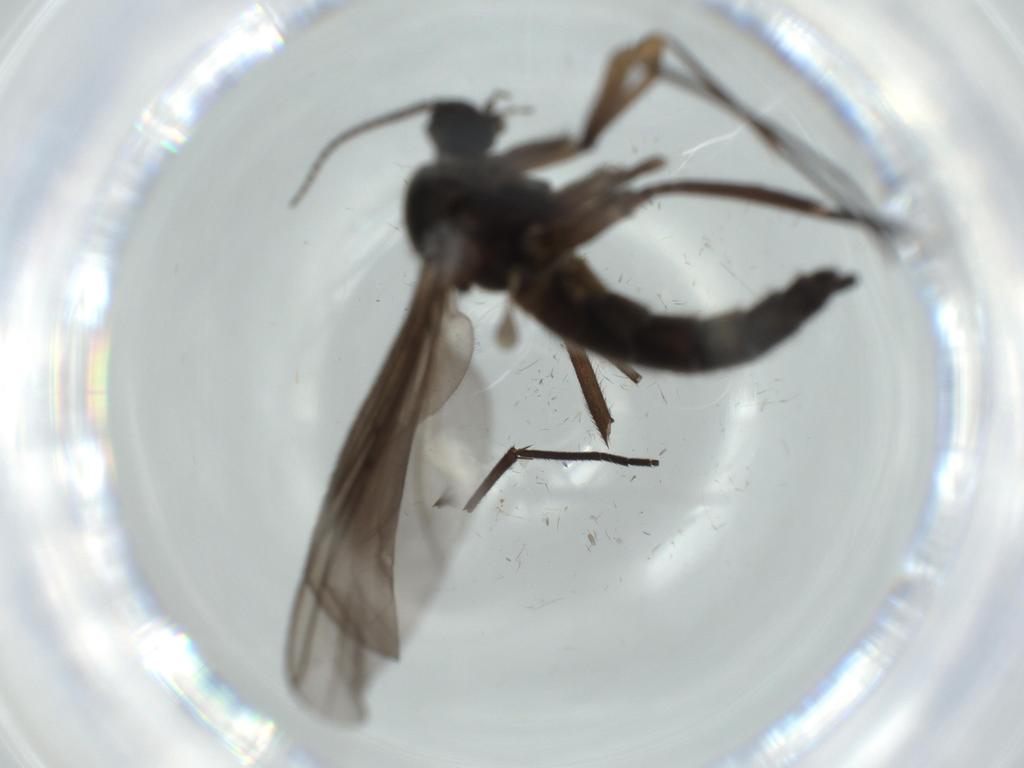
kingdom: Animalia
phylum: Arthropoda
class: Insecta
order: Diptera
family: Sciaridae
